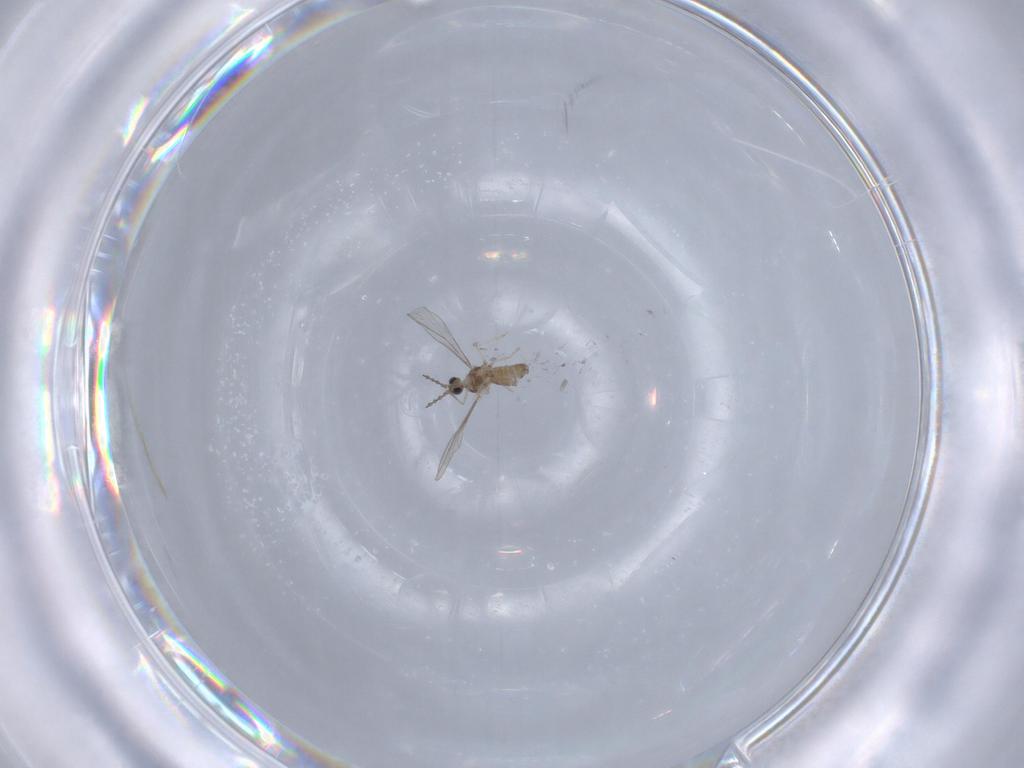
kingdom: Animalia
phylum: Arthropoda
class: Insecta
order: Diptera
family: Cecidomyiidae
